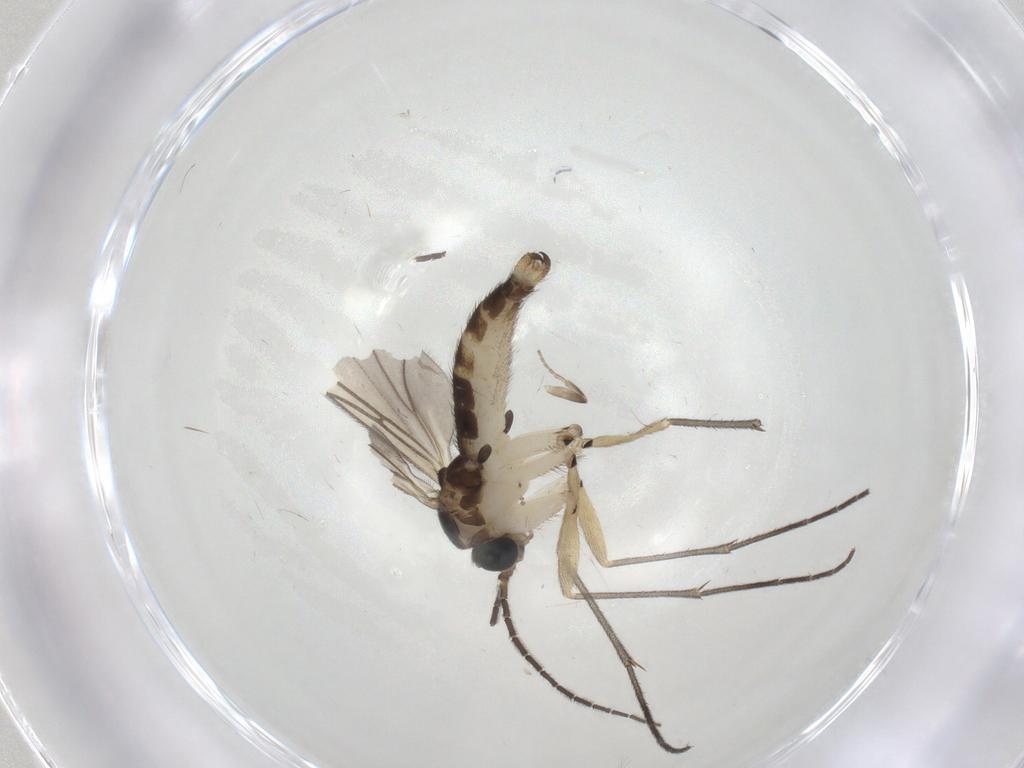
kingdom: Animalia
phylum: Arthropoda
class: Insecta
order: Diptera
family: Sciaridae
